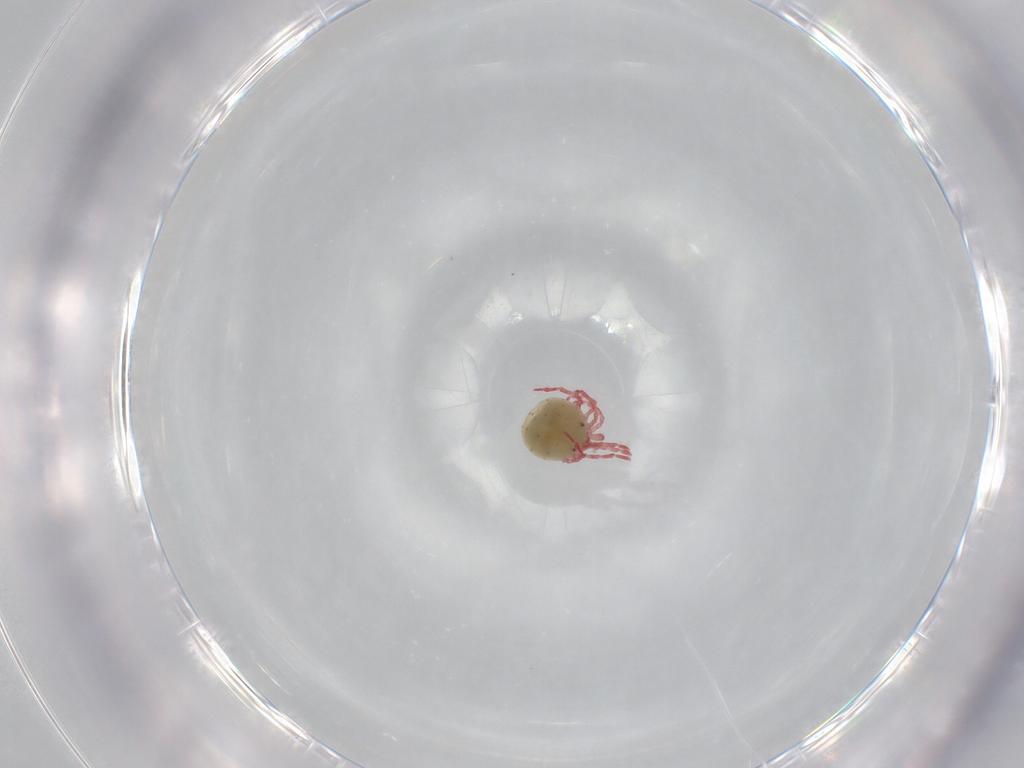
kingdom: Animalia
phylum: Arthropoda
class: Arachnida
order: Trombidiformes
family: Pionidae
